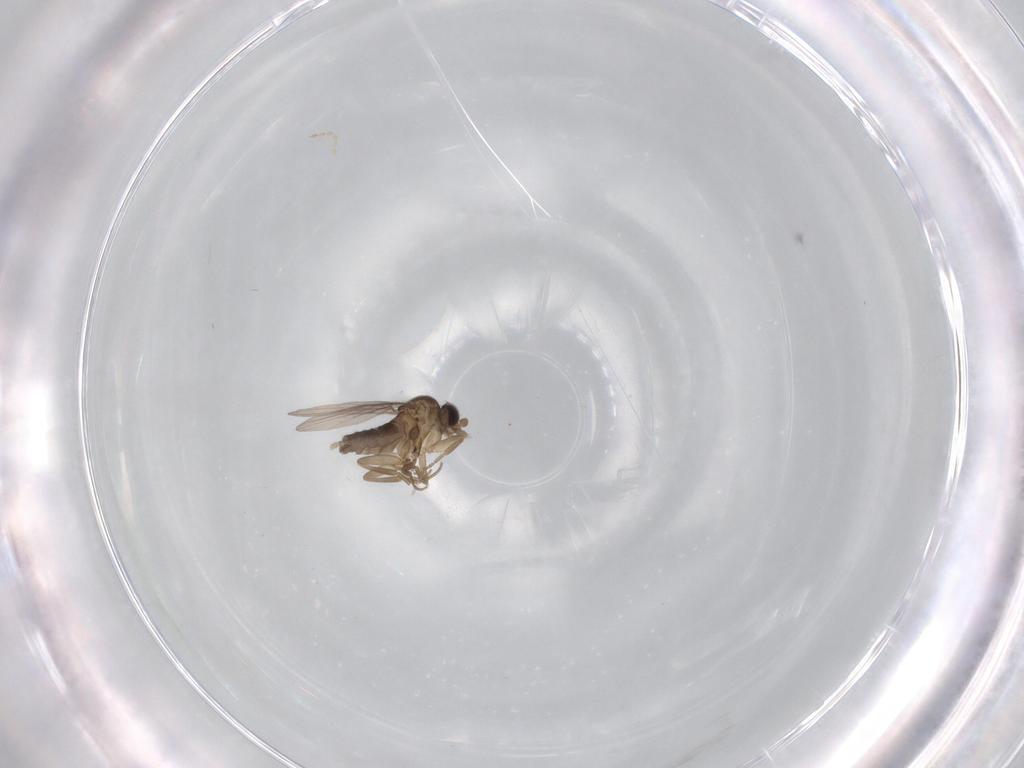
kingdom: Animalia
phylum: Arthropoda
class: Insecta
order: Diptera
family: Phoridae
